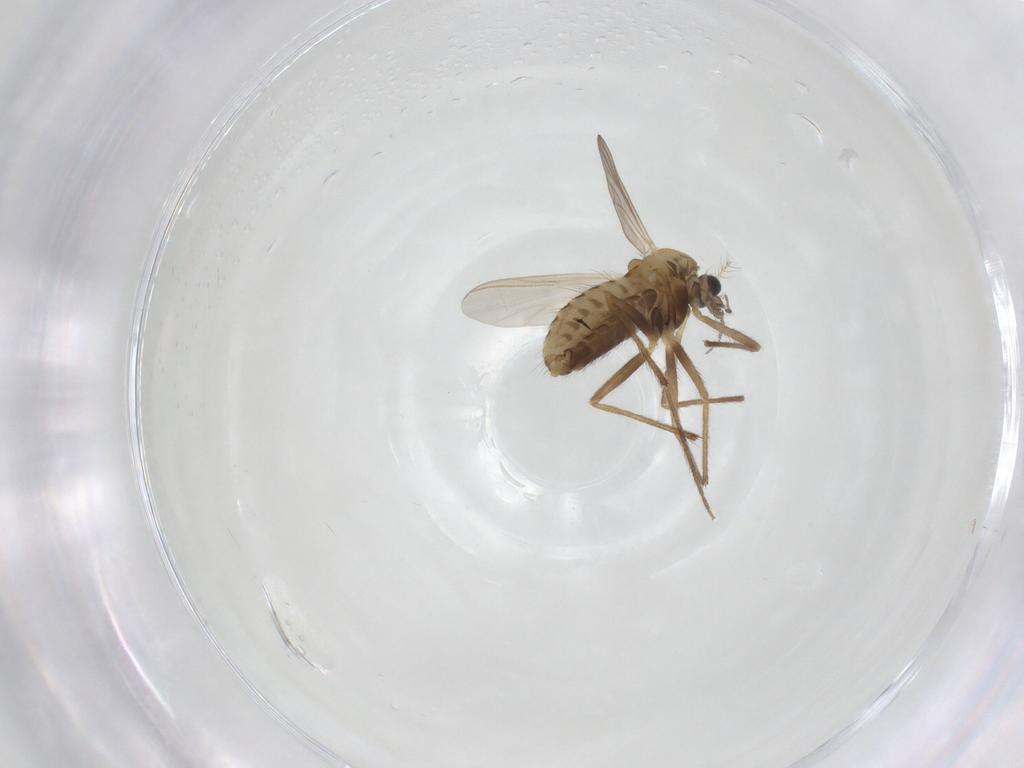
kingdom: Animalia
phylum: Arthropoda
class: Insecta
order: Diptera
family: Chironomidae
